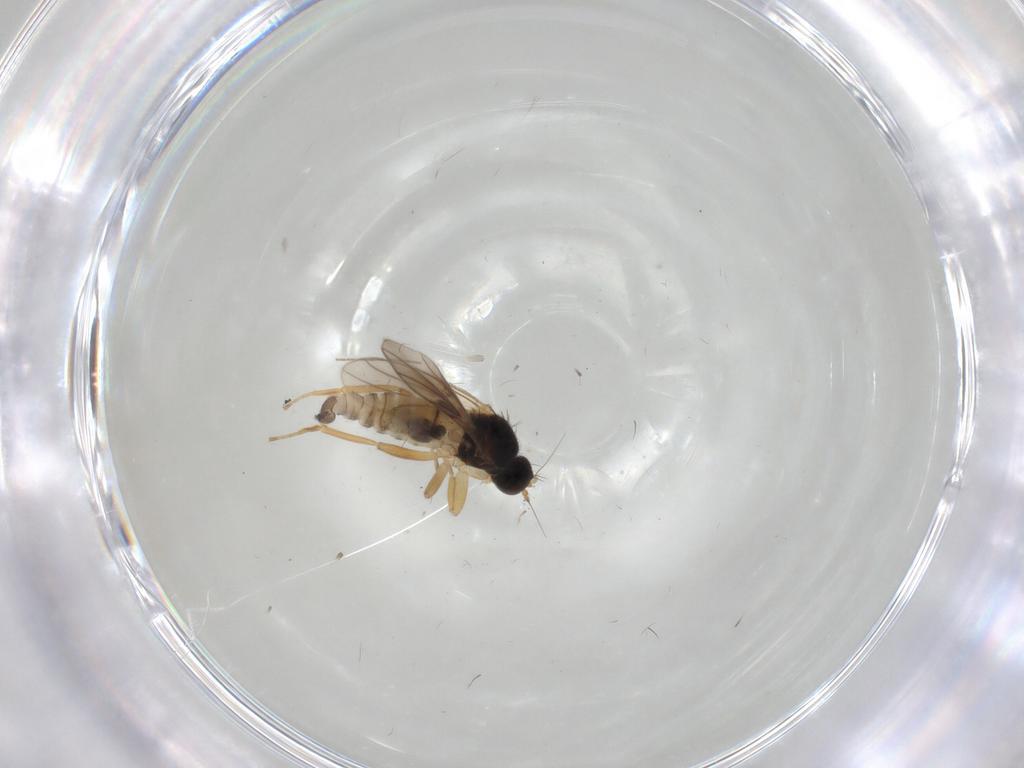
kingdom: Animalia
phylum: Arthropoda
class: Insecta
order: Diptera
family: Hybotidae
